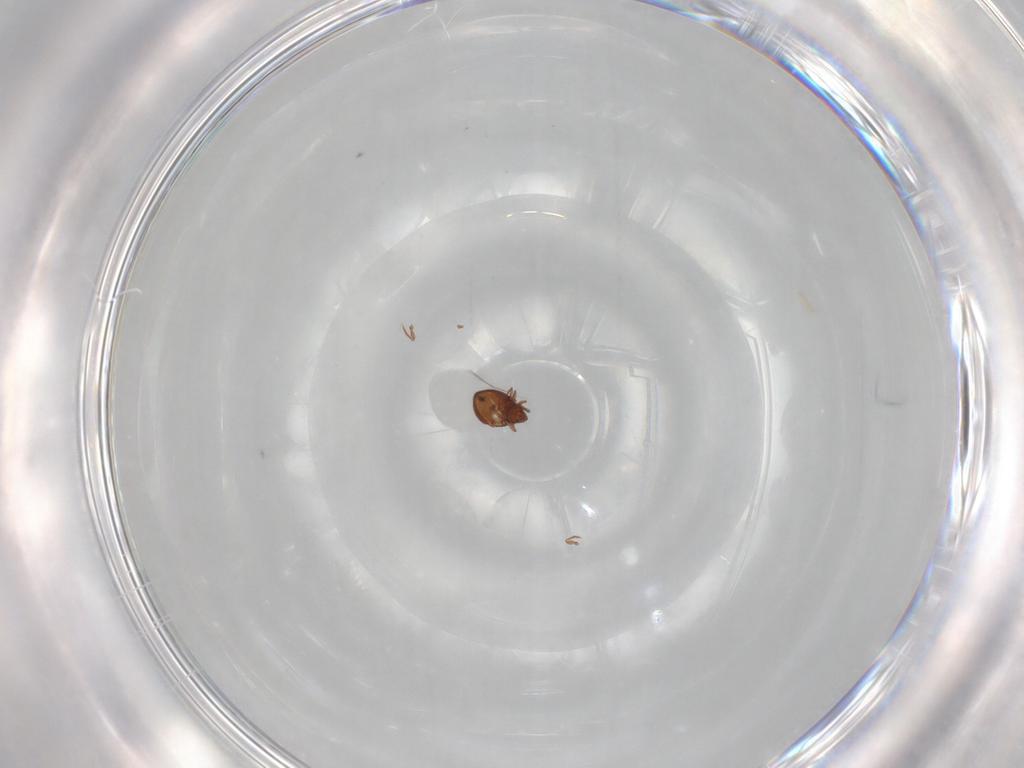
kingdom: Animalia
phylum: Arthropoda
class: Arachnida
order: Sarcoptiformes
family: Oribatulidae
